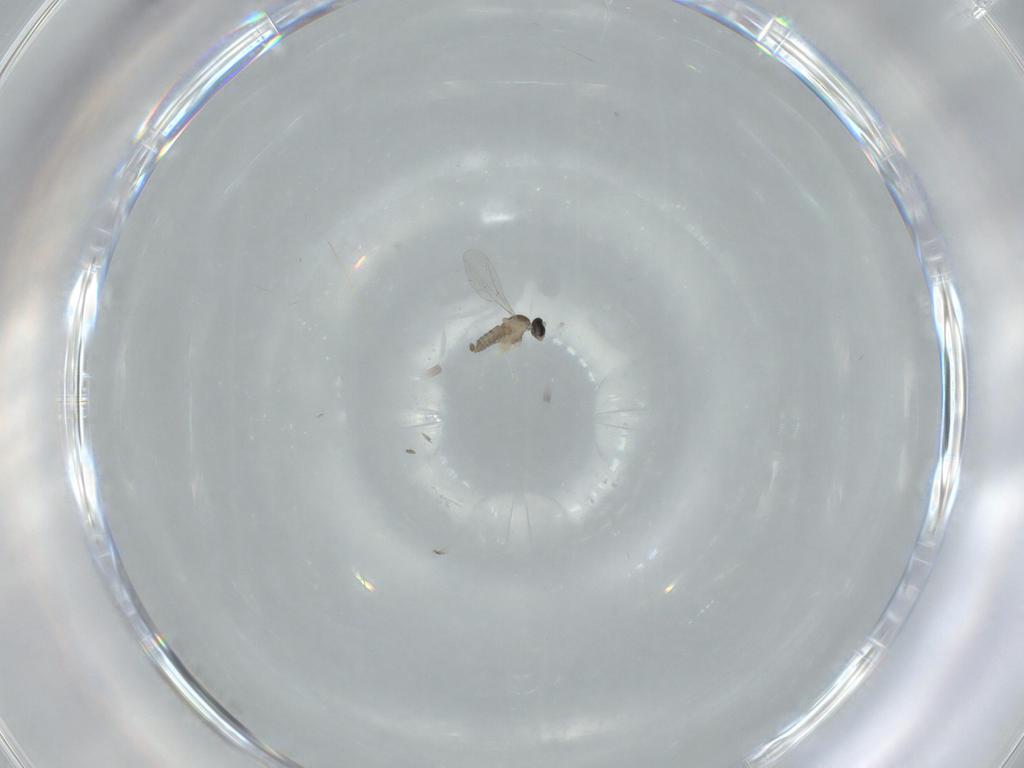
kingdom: Animalia
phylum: Arthropoda
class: Insecta
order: Diptera
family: Cecidomyiidae
